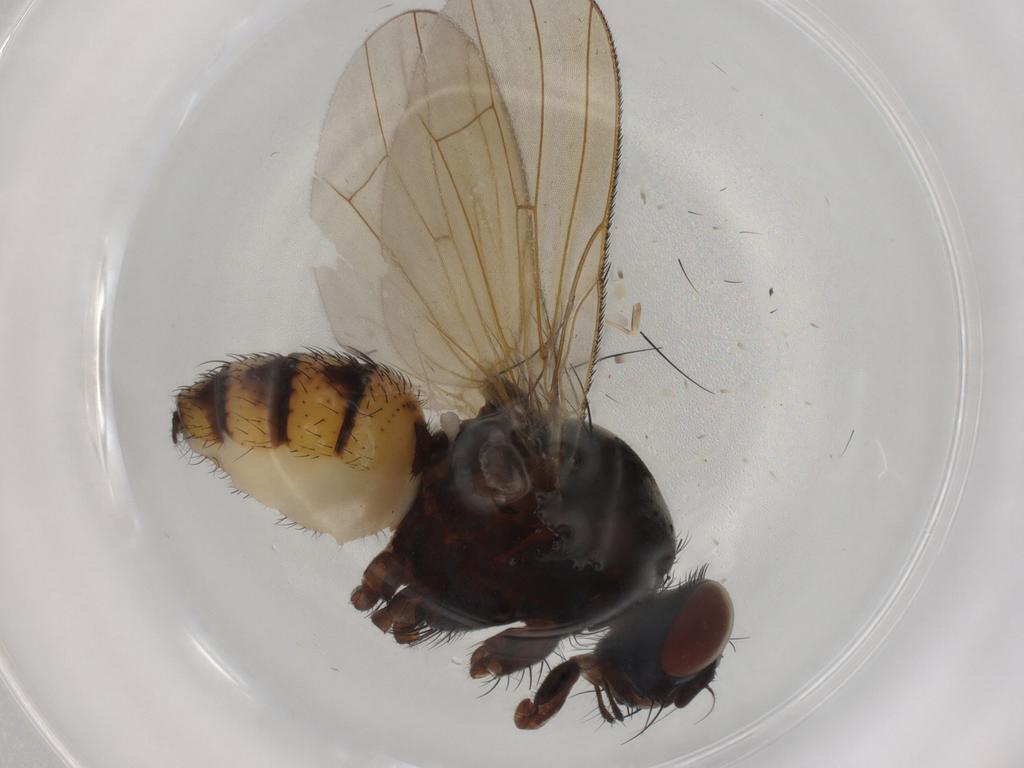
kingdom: Animalia
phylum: Arthropoda
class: Insecta
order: Diptera
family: Anthomyiidae
